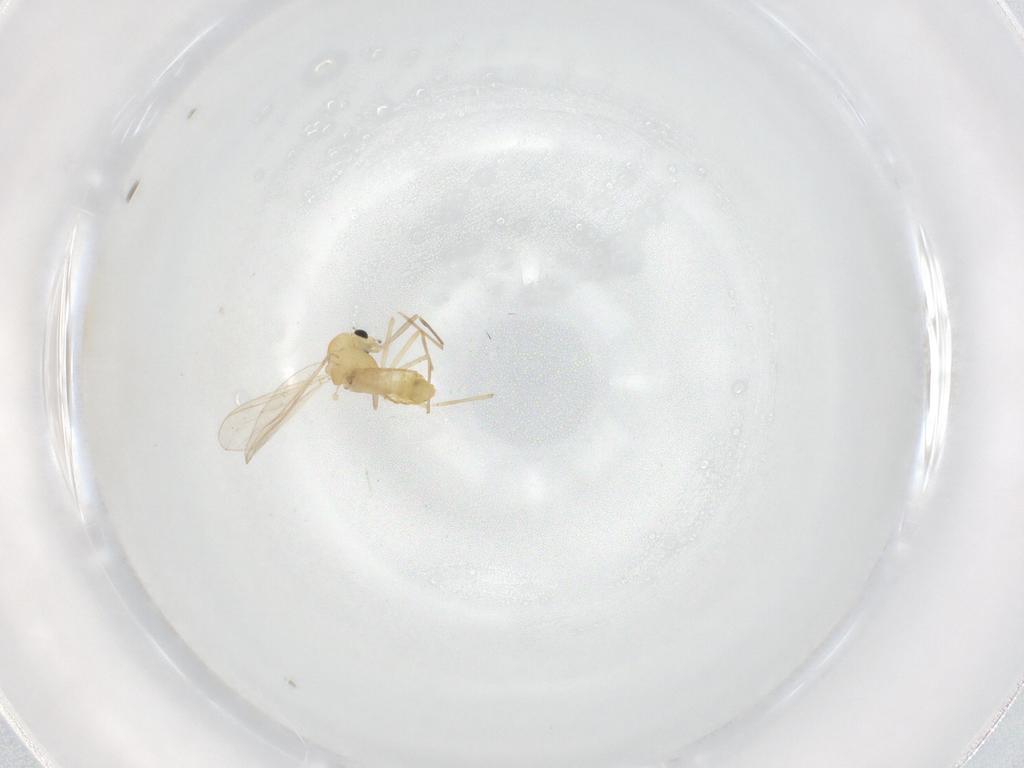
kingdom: Animalia
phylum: Arthropoda
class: Insecta
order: Diptera
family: Chironomidae
